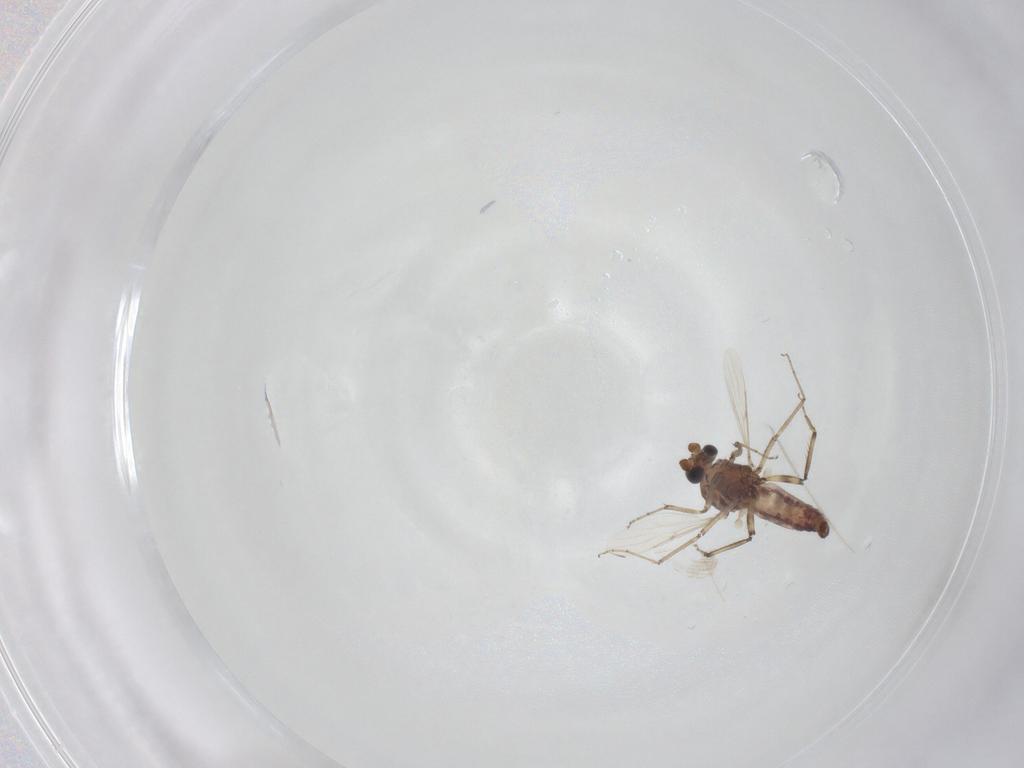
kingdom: Animalia
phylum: Arthropoda
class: Insecta
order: Diptera
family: Ceratopogonidae
